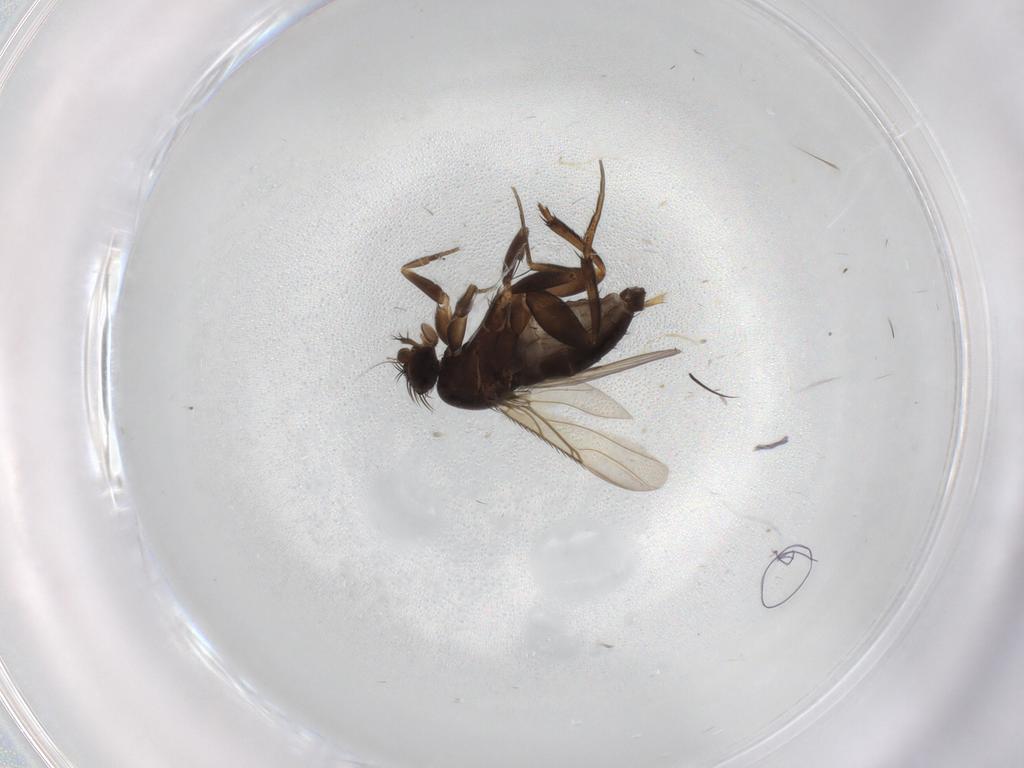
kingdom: Animalia
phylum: Arthropoda
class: Insecta
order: Diptera
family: Phoridae
